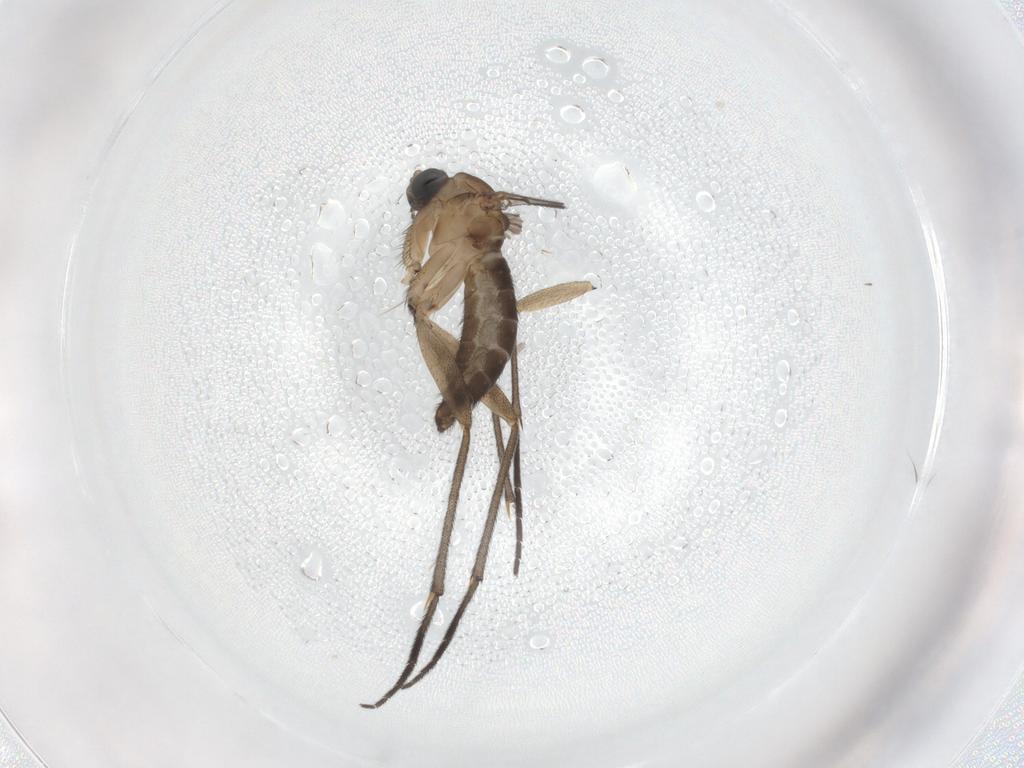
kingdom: Animalia
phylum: Arthropoda
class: Insecta
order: Diptera
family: Sciaridae
